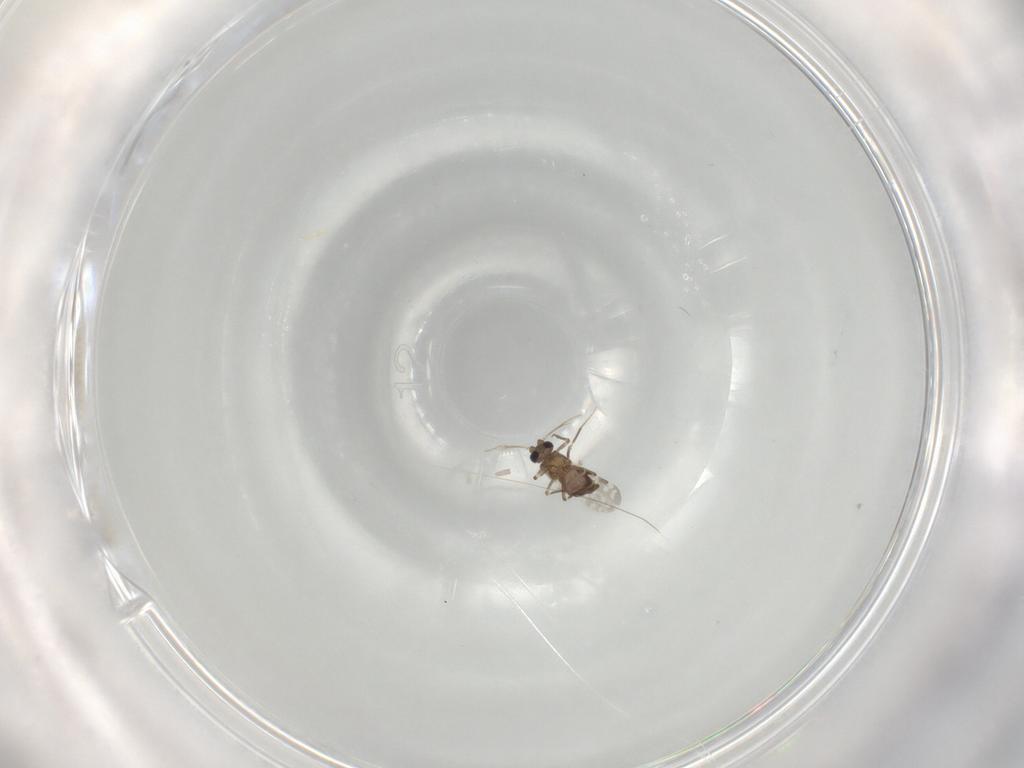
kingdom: Animalia
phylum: Arthropoda
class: Insecta
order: Diptera
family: Ceratopogonidae
